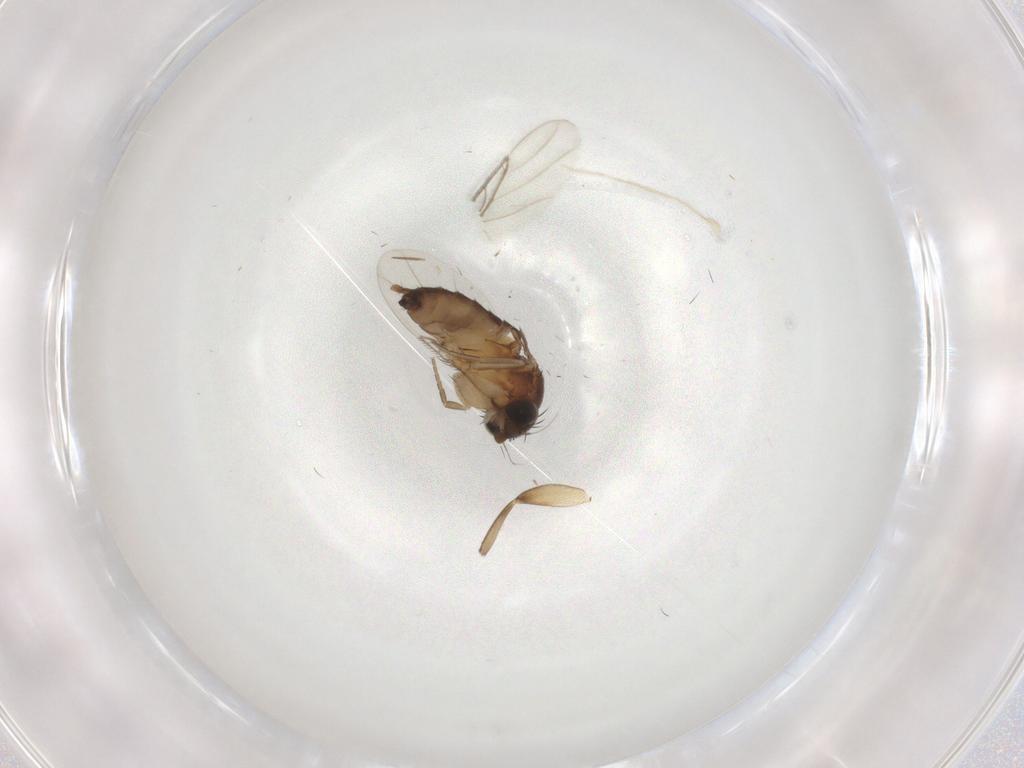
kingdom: Animalia
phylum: Arthropoda
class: Insecta
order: Diptera
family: Phoridae
